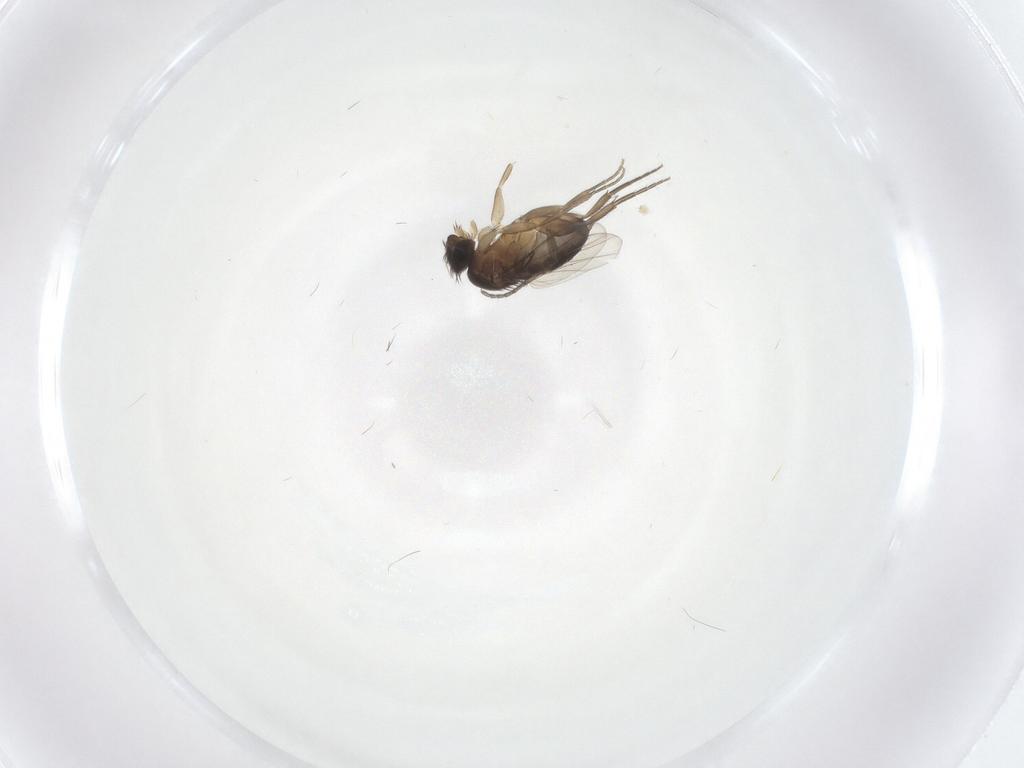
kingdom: Animalia
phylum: Arthropoda
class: Insecta
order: Diptera
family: Sciaridae
